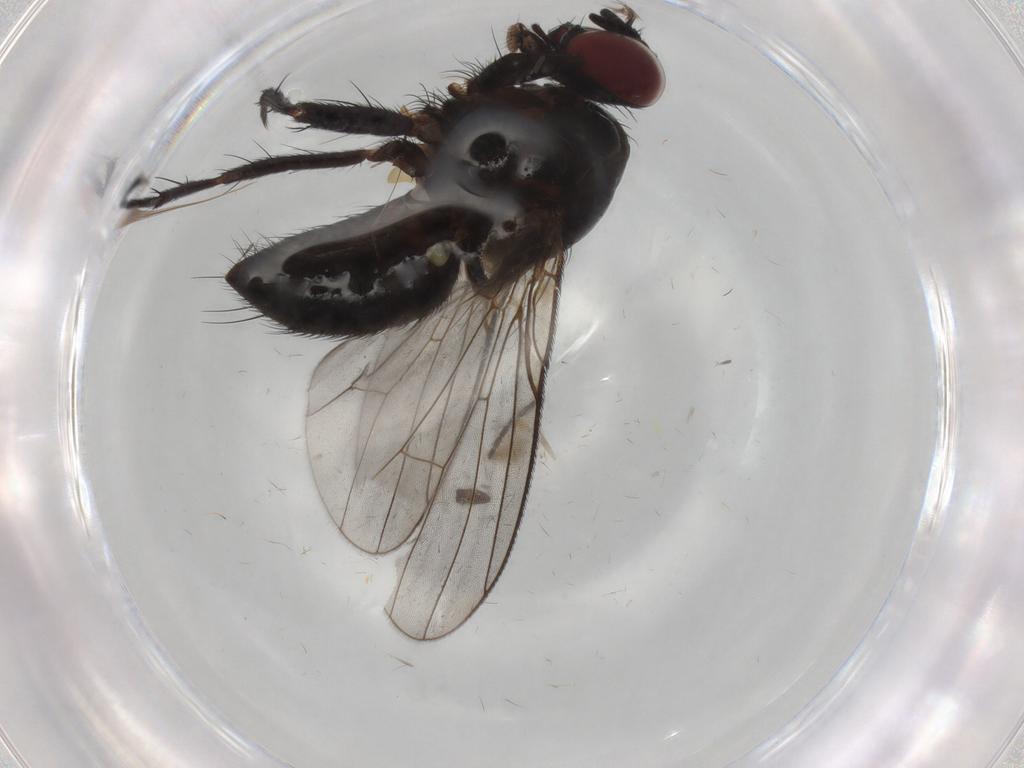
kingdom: Animalia
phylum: Arthropoda
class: Insecta
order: Diptera
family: Muscidae
